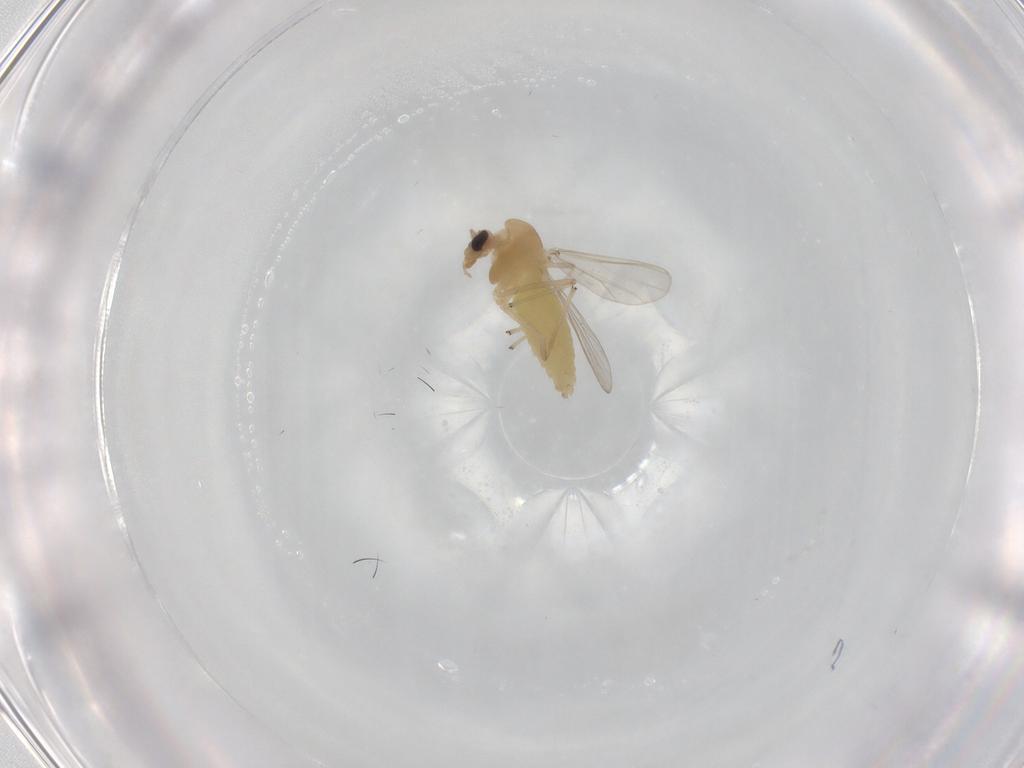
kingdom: Animalia
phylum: Arthropoda
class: Insecta
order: Diptera
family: Chironomidae
